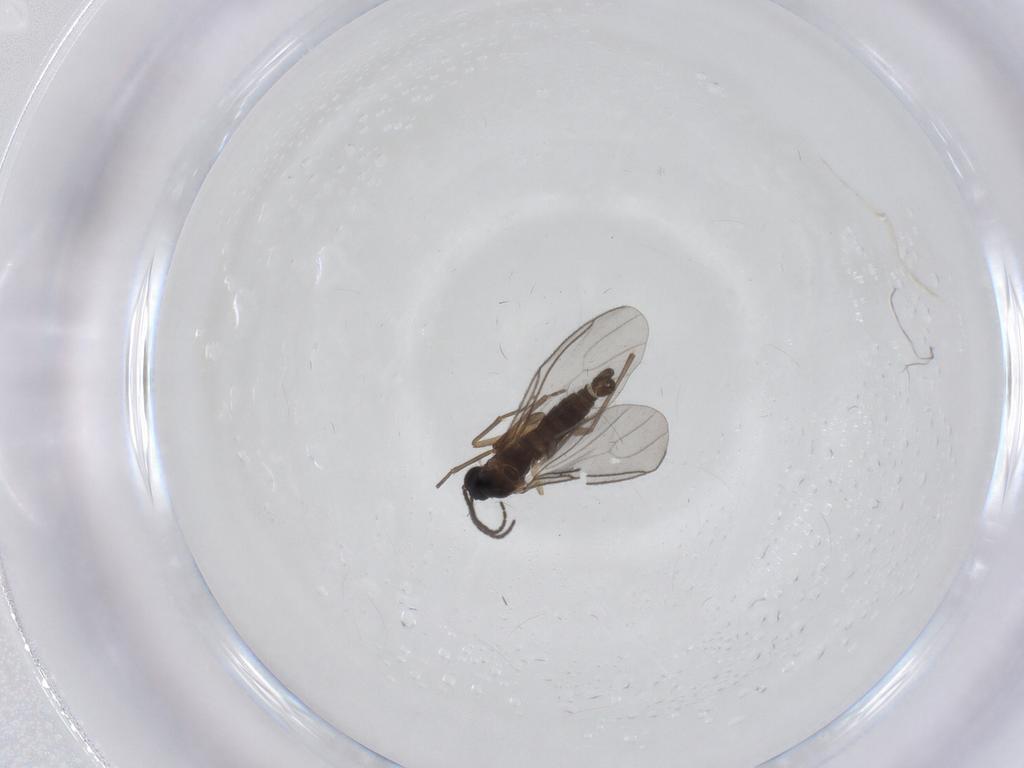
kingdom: Animalia
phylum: Arthropoda
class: Insecta
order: Diptera
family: Sciaridae
